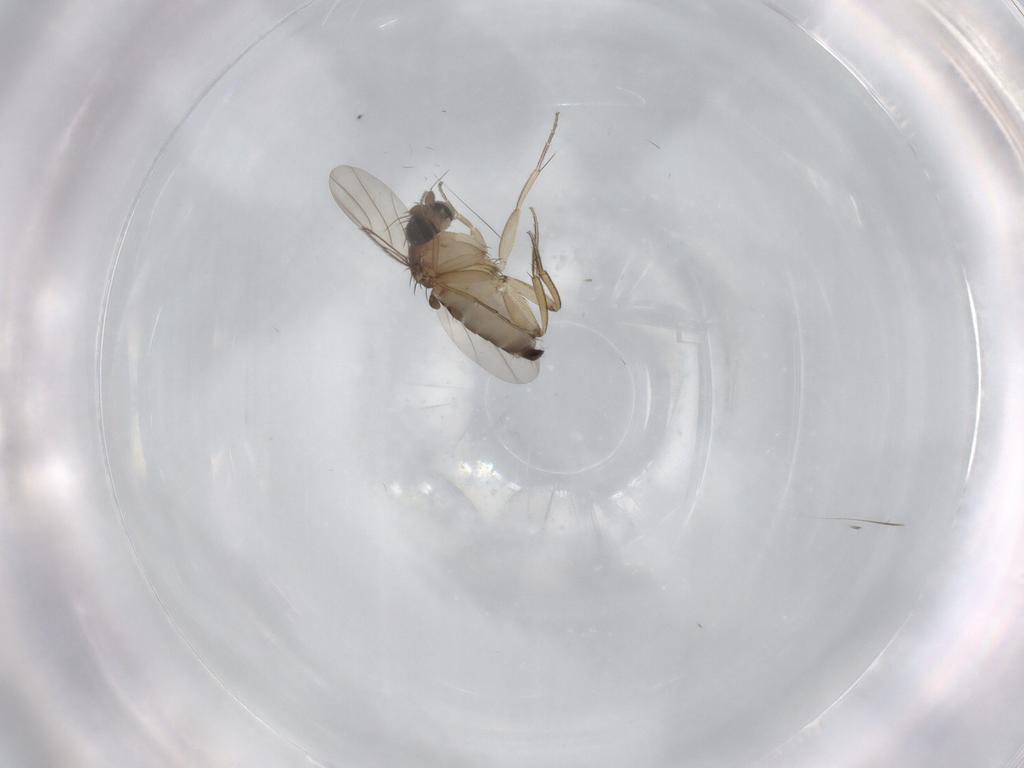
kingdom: Animalia
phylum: Arthropoda
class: Insecta
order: Diptera
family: Phoridae
